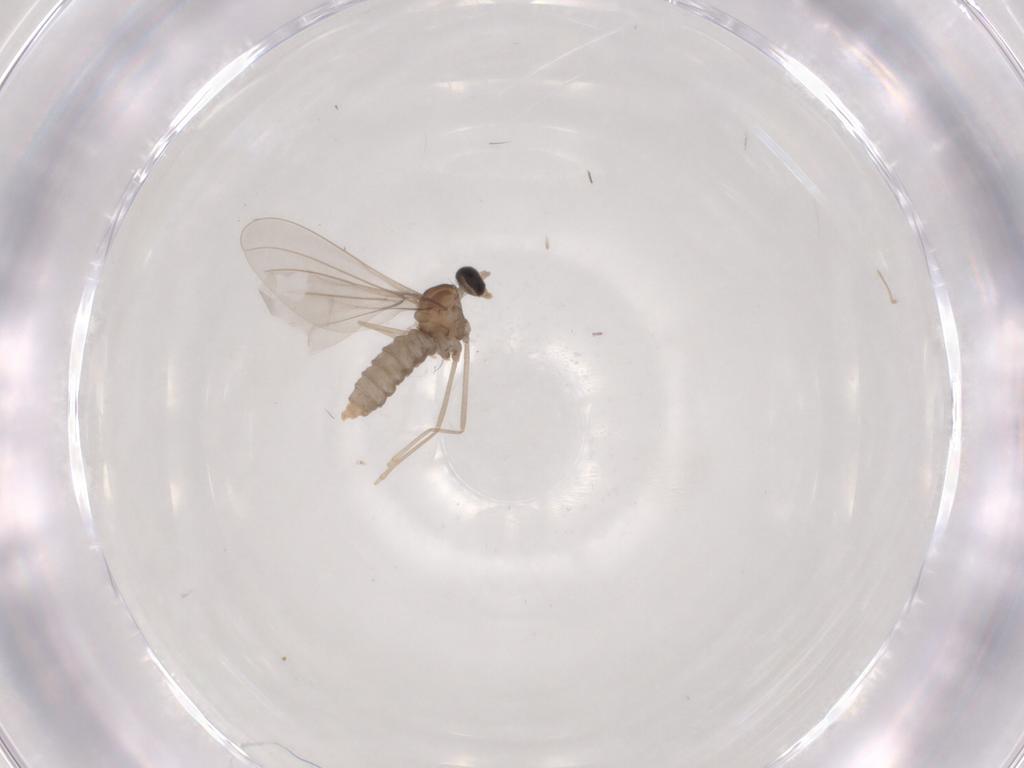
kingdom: Animalia
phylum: Arthropoda
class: Insecta
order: Diptera
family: Cecidomyiidae
